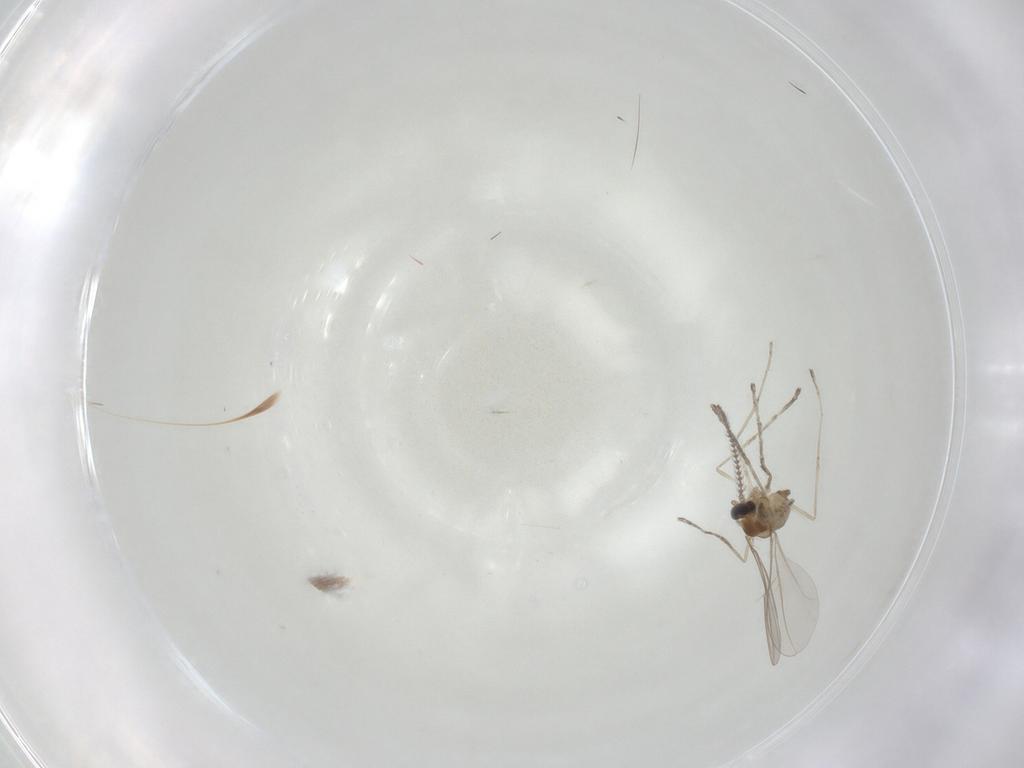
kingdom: Animalia
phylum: Arthropoda
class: Insecta
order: Diptera
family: Cecidomyiidae
